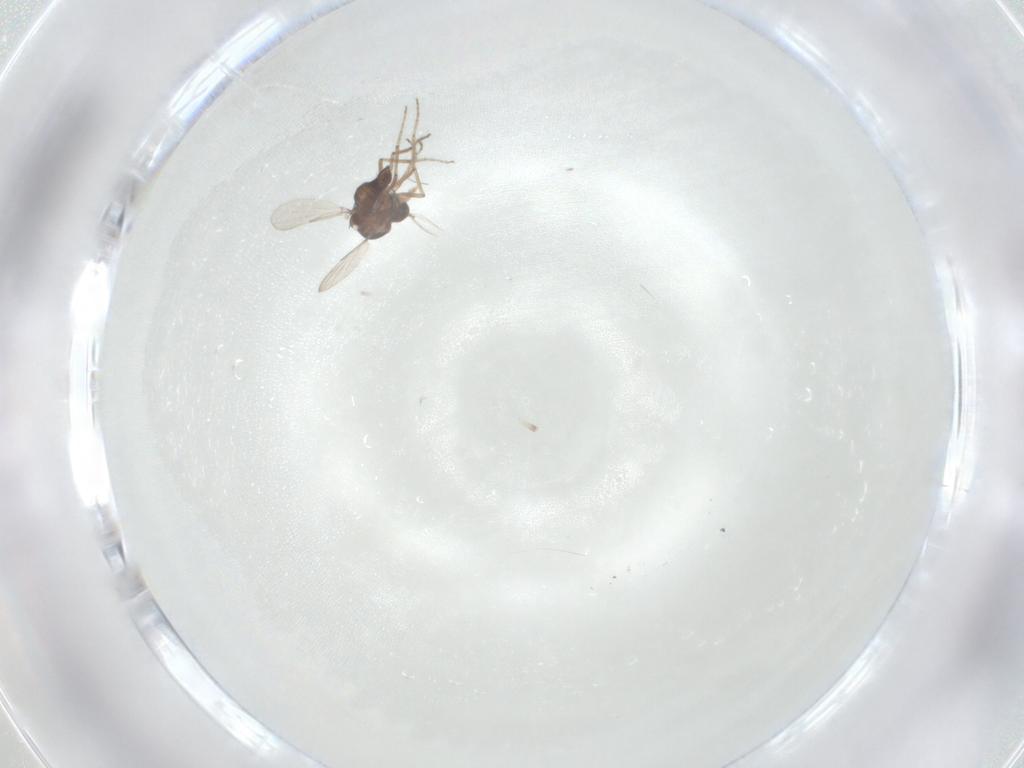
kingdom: Animalia
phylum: Arthropoda
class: Insecta
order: Diptera
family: Ceratopogonidae
